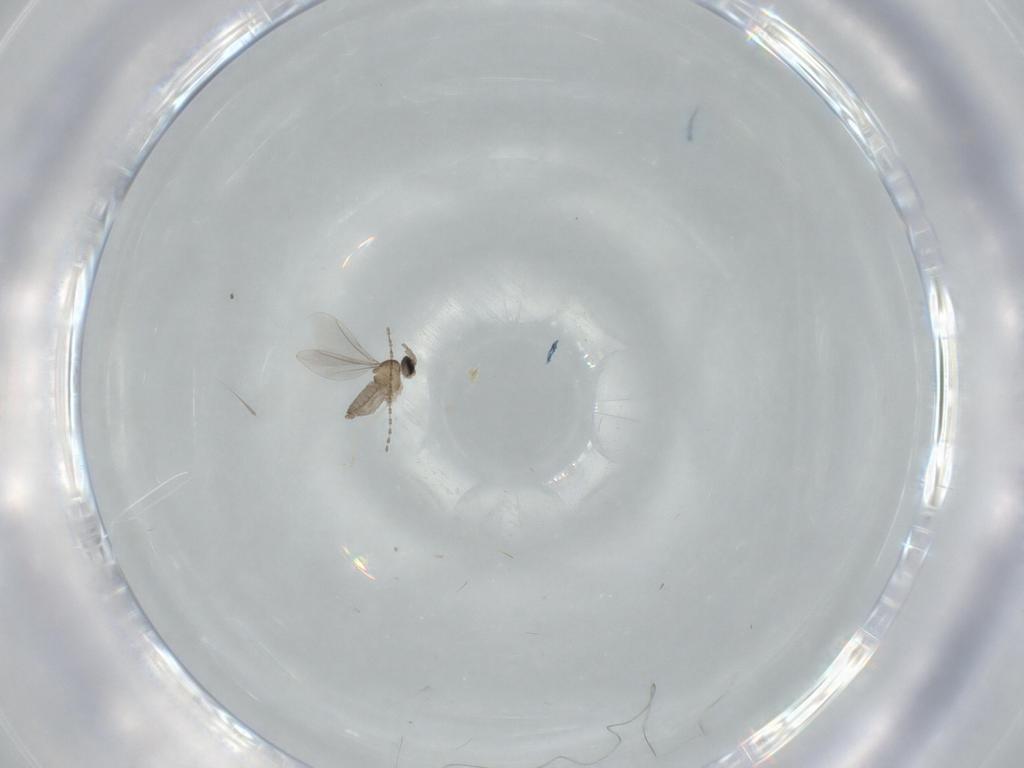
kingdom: Animalia
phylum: Arthropoda
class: Insecta
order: Diptera
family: Cecidomyiidae
